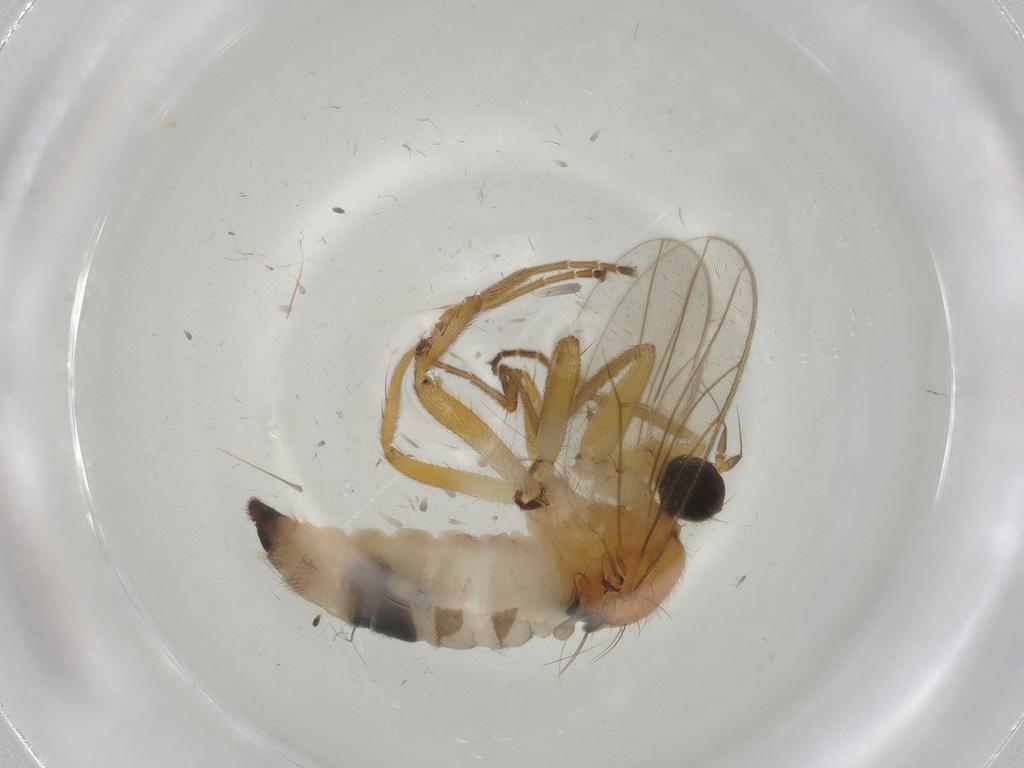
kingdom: Animalia
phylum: Arthropoda
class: Insecta
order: Diptera
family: Hybotidae
